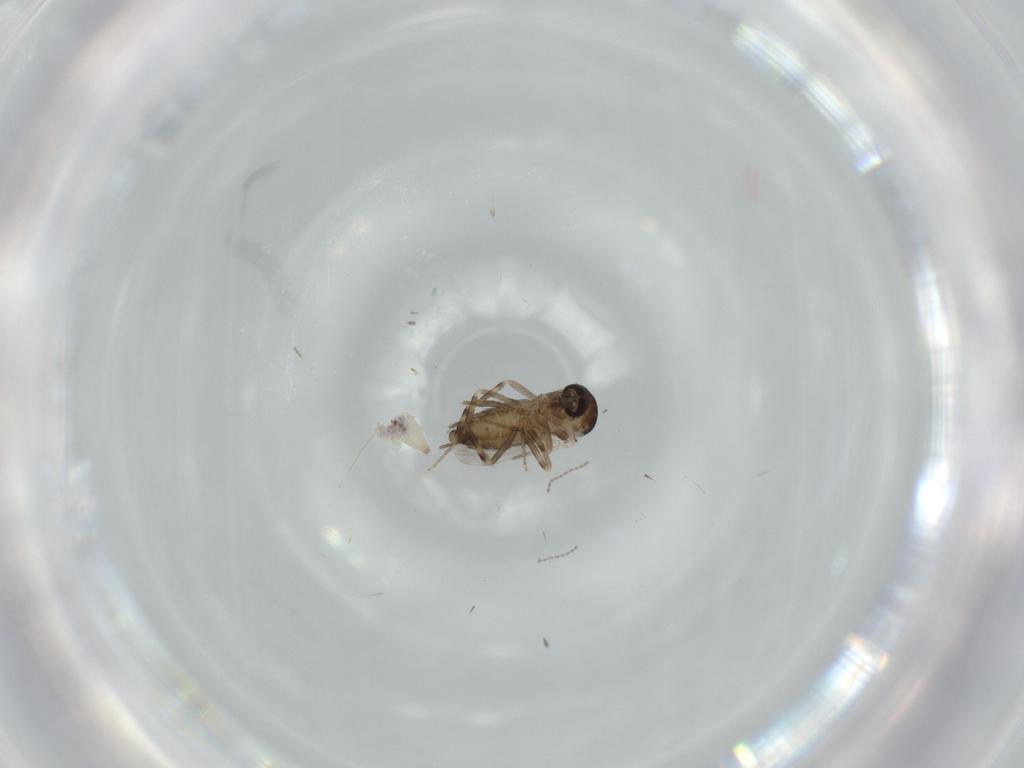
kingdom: Animalia
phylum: Arthropoda
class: Insecta
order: Diptera
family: Ceratopogonidae
